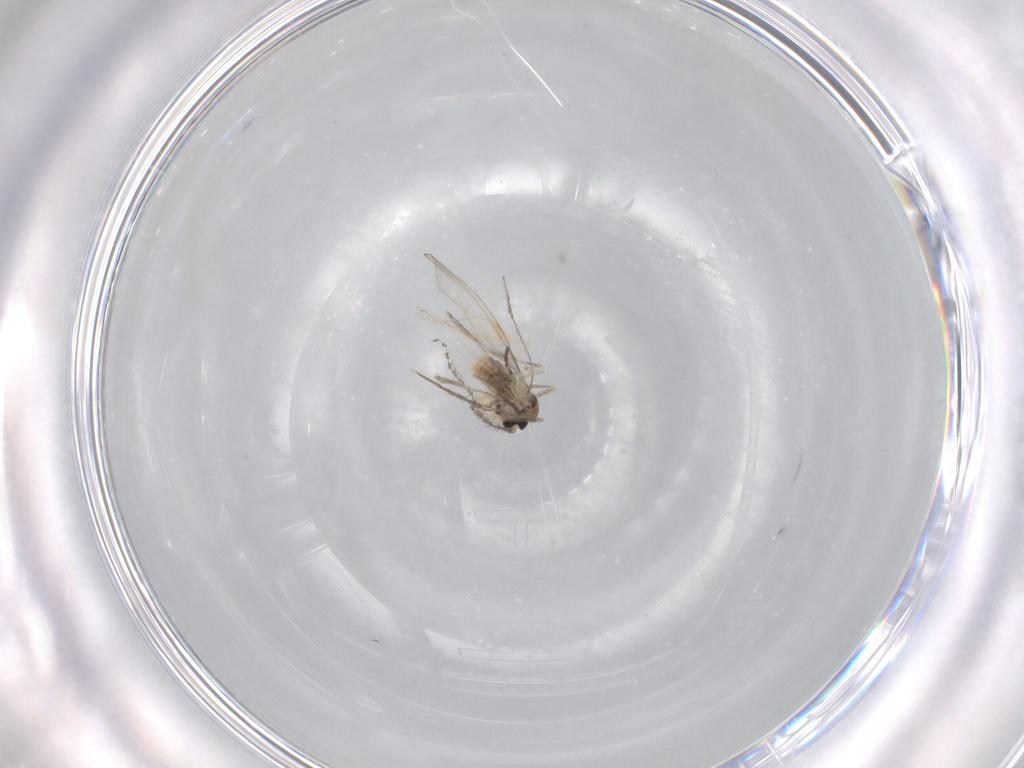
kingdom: Animalia
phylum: Arthropoda
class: Insecta
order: Diptera
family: Cecidomyiidae
